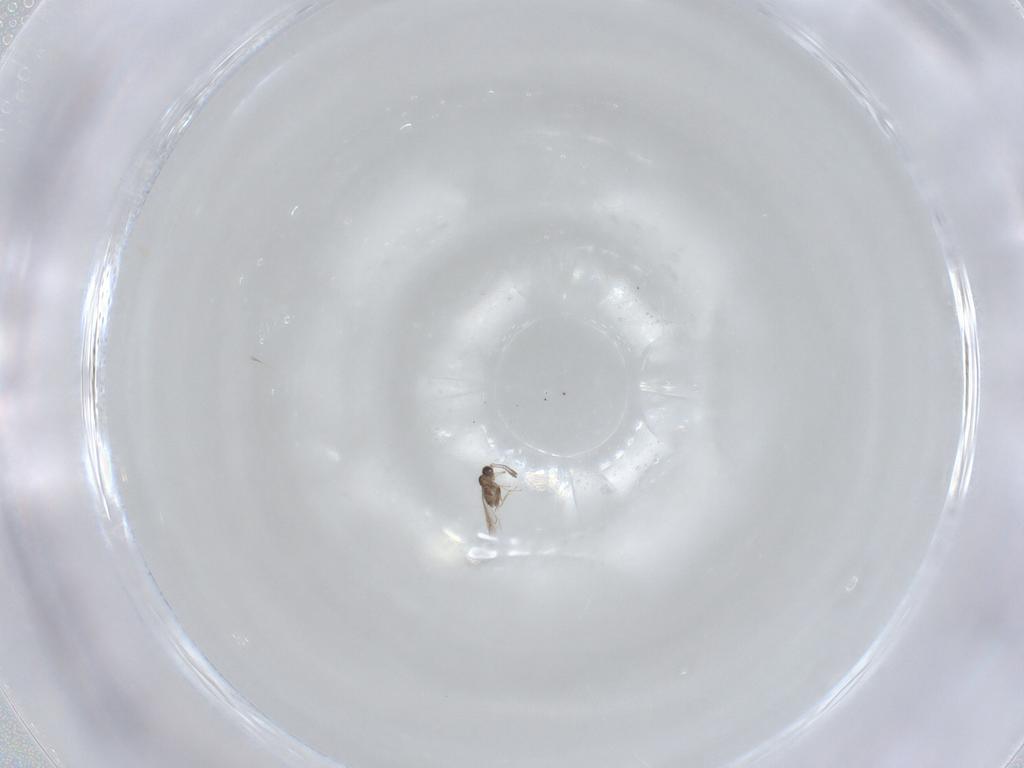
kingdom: Animalia
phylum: Arthropoda
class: Insecta
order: Hymenoptera
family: Mymaridae
